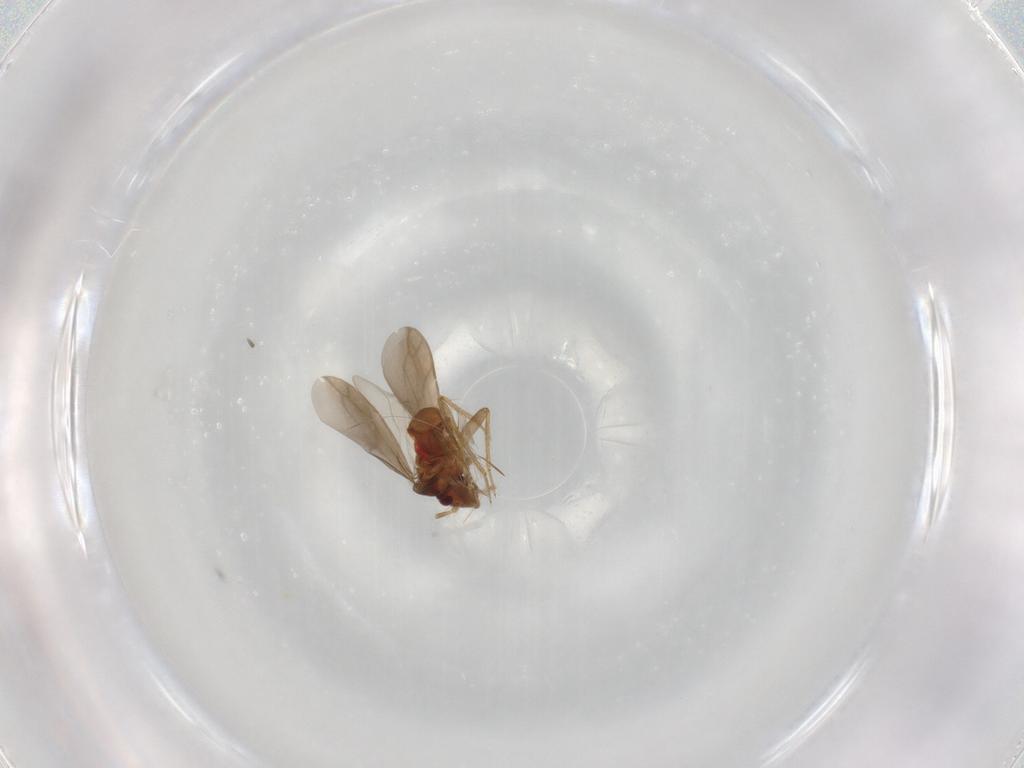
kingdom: Animalia
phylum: Arthropoda
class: Insecta
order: Hemiptera
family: Ceratocombidae
